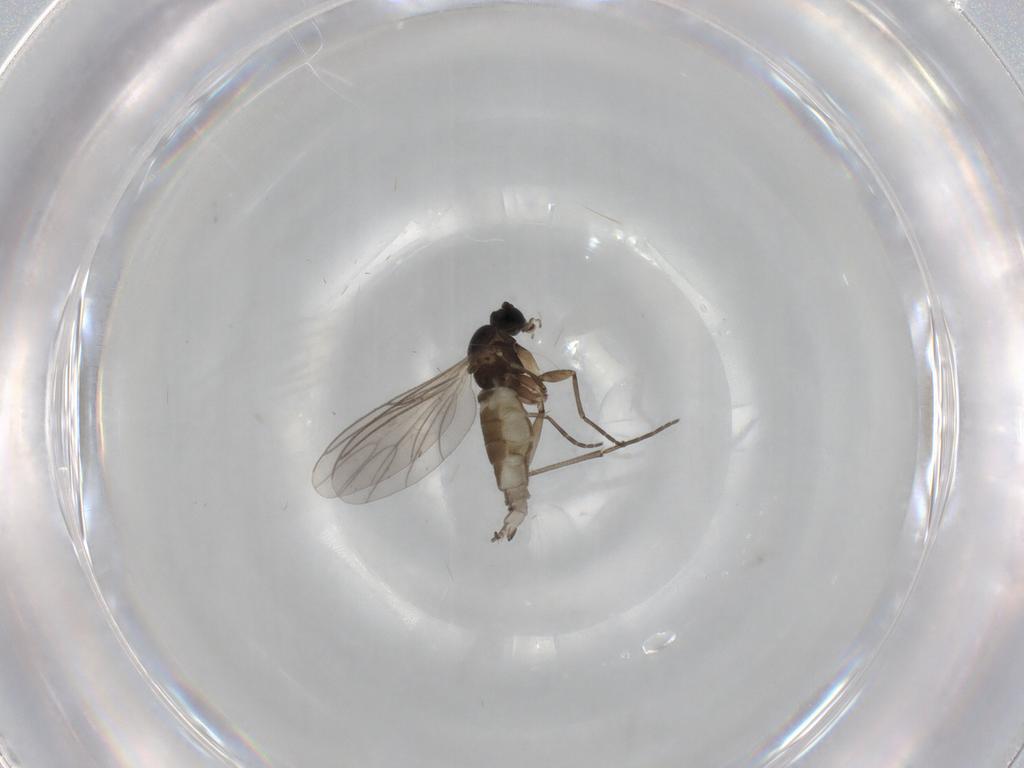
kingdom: Animalia
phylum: Arthropoda
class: Insecta
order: Diptera
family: Sciaridae
